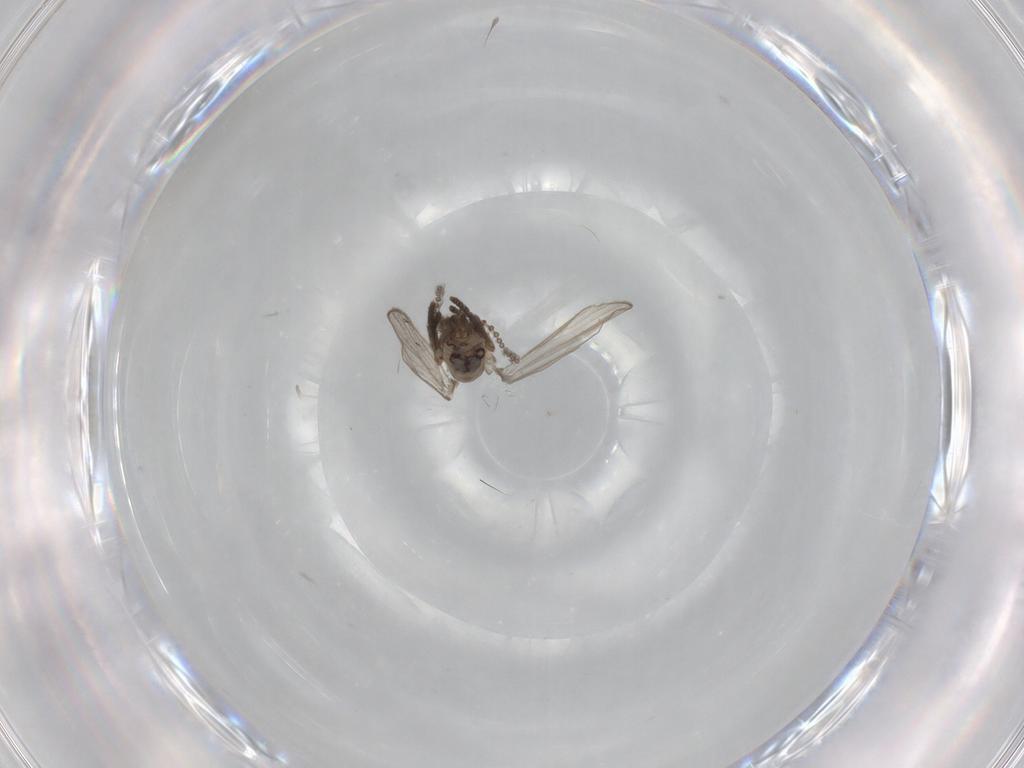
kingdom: Animalia
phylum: Arthropoda
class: Insecta
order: Diptera
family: Psychodidae
